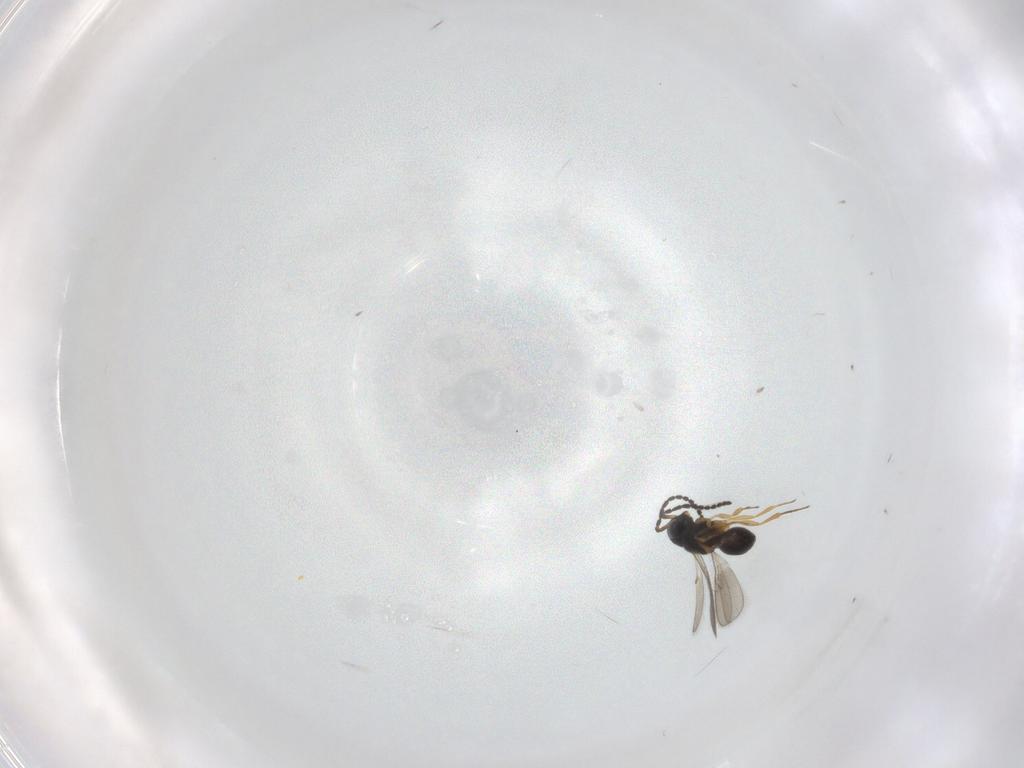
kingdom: Animalia
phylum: Arthropoda
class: Insecta
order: Hymenoptera
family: Scelionidae
